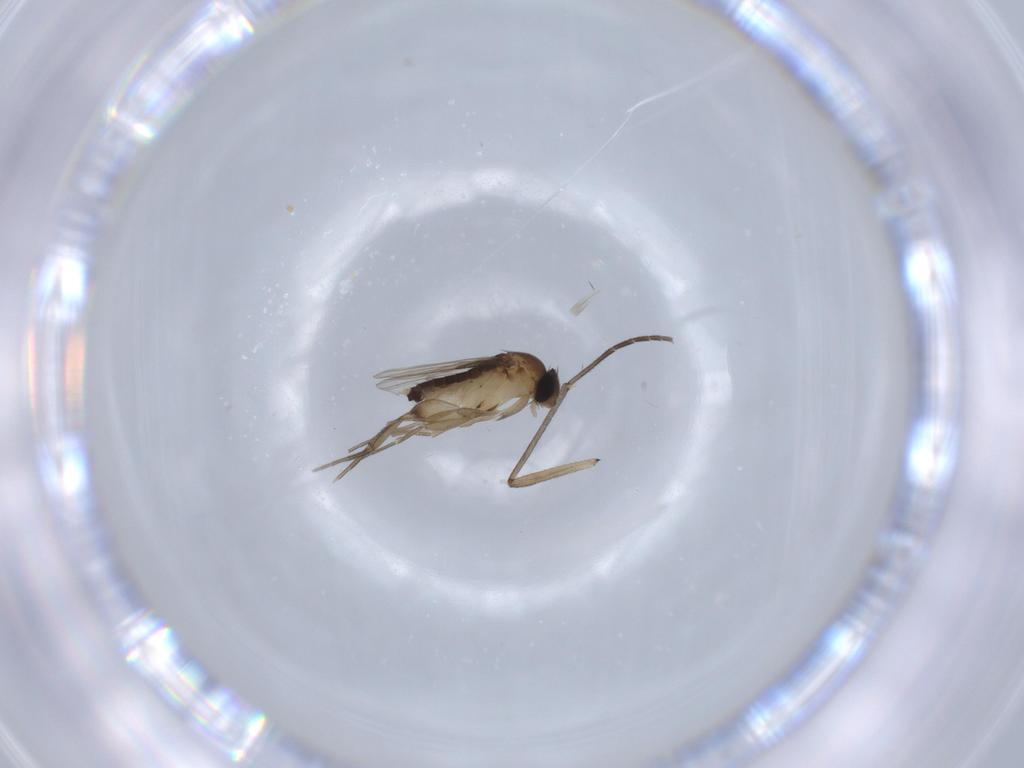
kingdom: Animalia
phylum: Arthropoda
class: Insecta
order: Diptera
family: Phoridae
